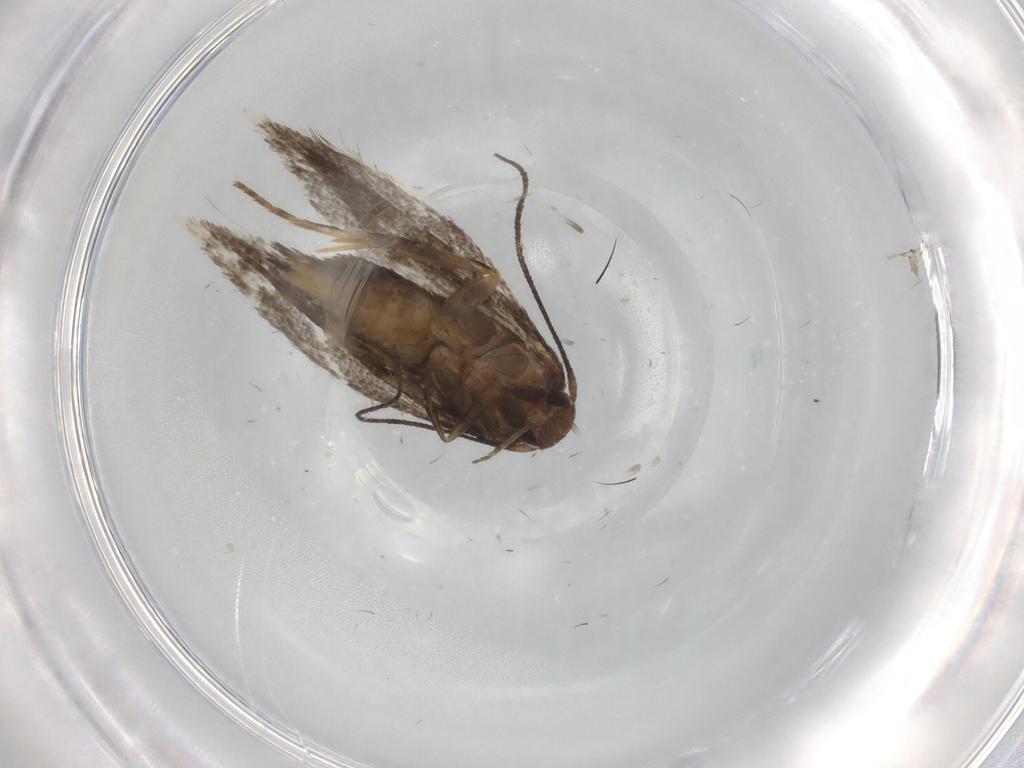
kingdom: Animalia
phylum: Arthropoda
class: Insecta
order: Lepidoptera
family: Elachistidae
